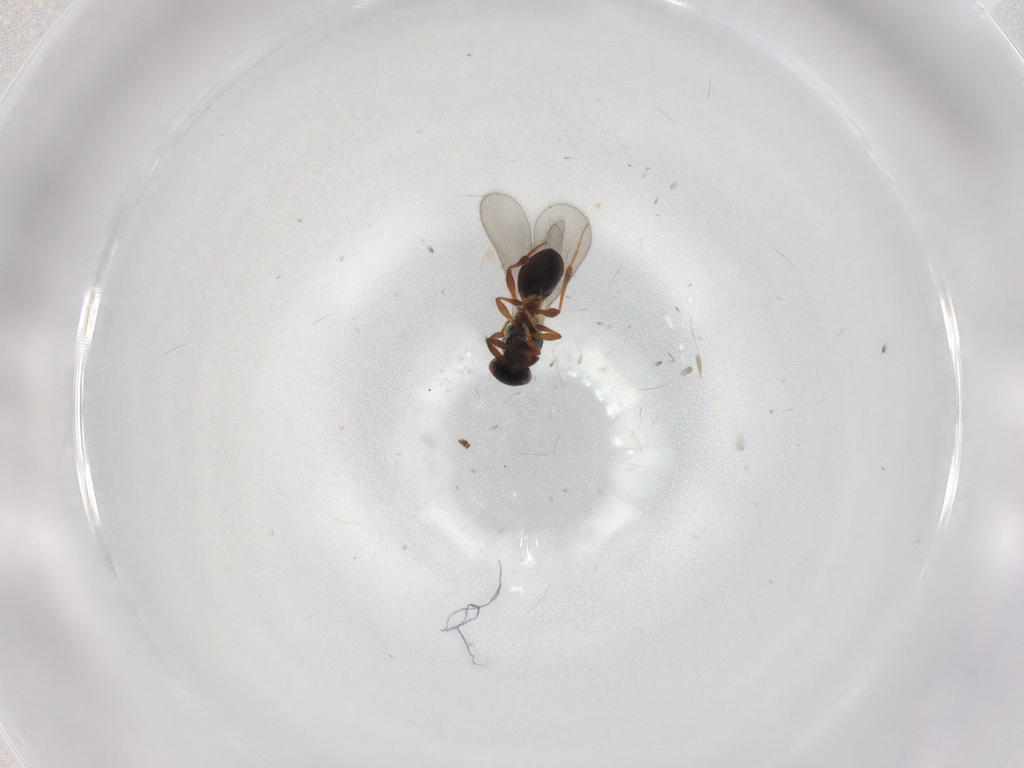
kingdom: Animalia
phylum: Arthropoda
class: Insecta
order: Hymenoptera
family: Platygastridae
